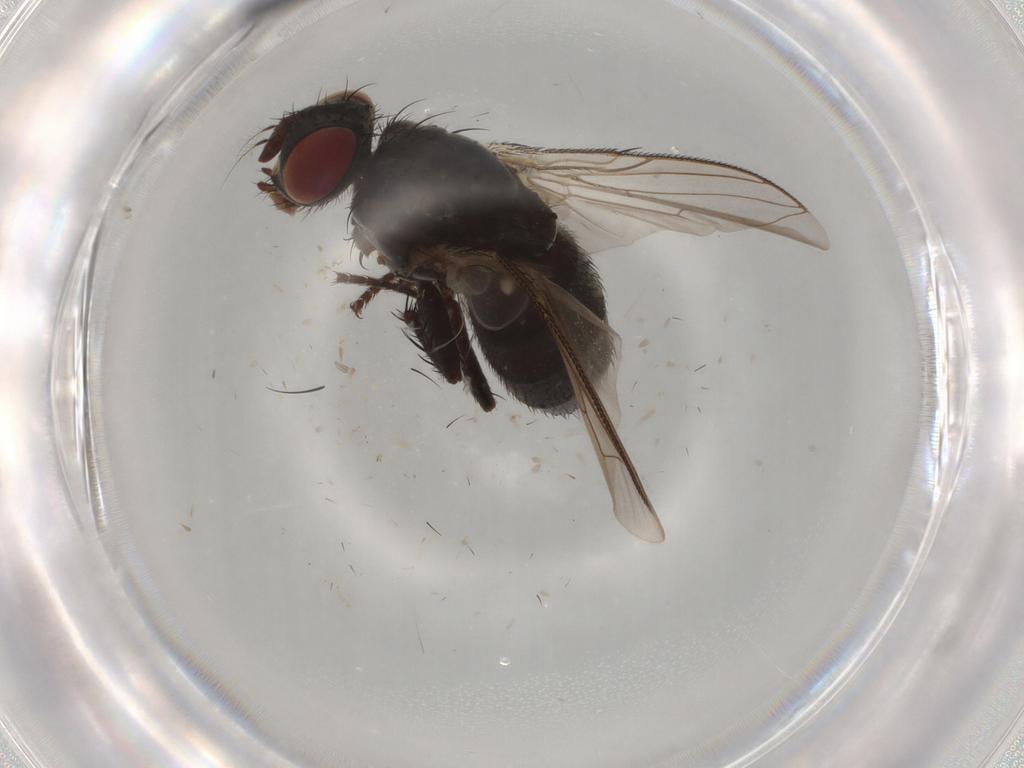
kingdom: Animalia
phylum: Arthropoda
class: Insecta
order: Diptera
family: Sarcophagidae
